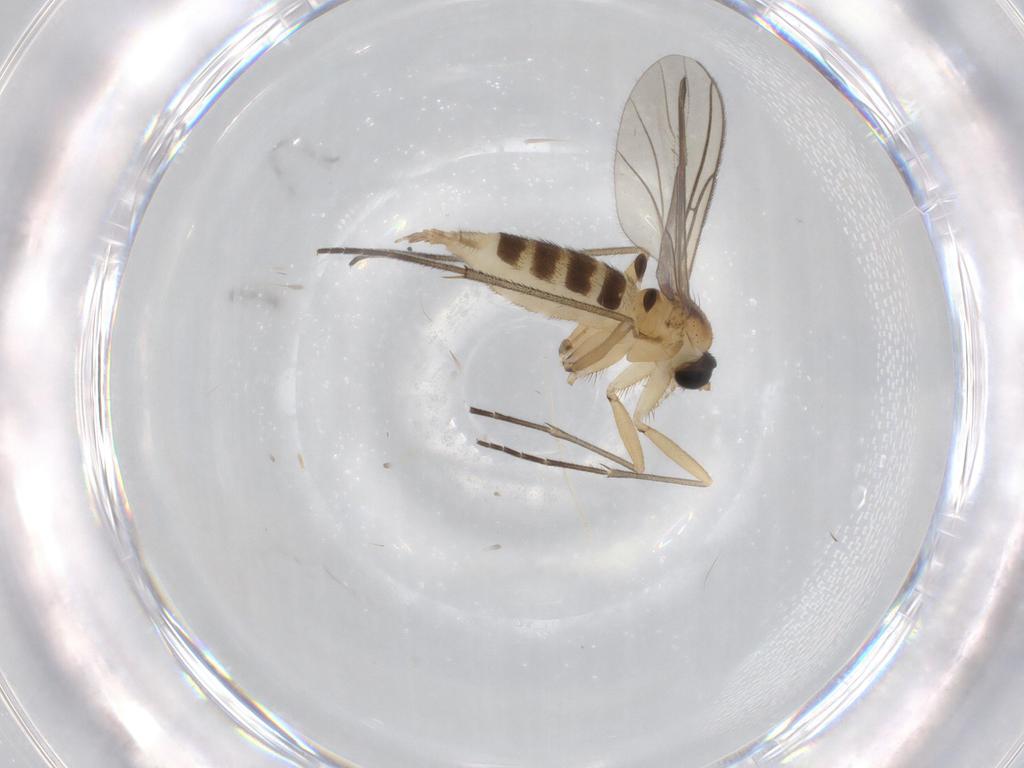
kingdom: Animalia
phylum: Arthropoda
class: Insecta
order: Diptera
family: Sciaridae
